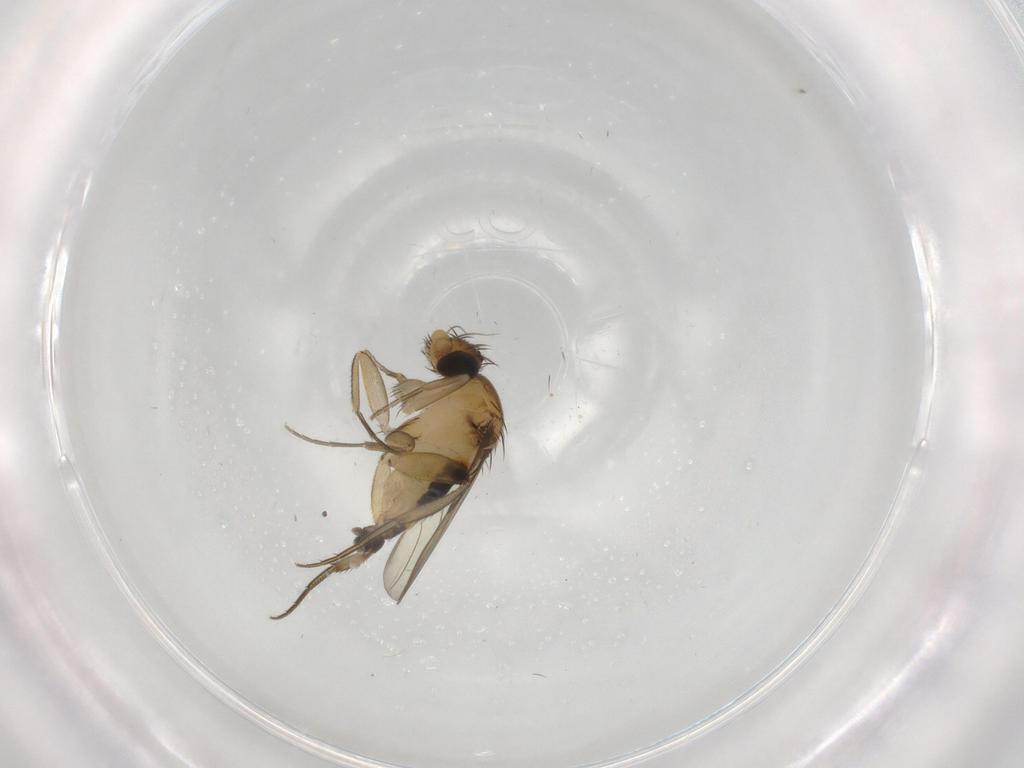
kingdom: Animalia
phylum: Arthropoda
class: Insecta
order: Diptera
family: Phoridae
